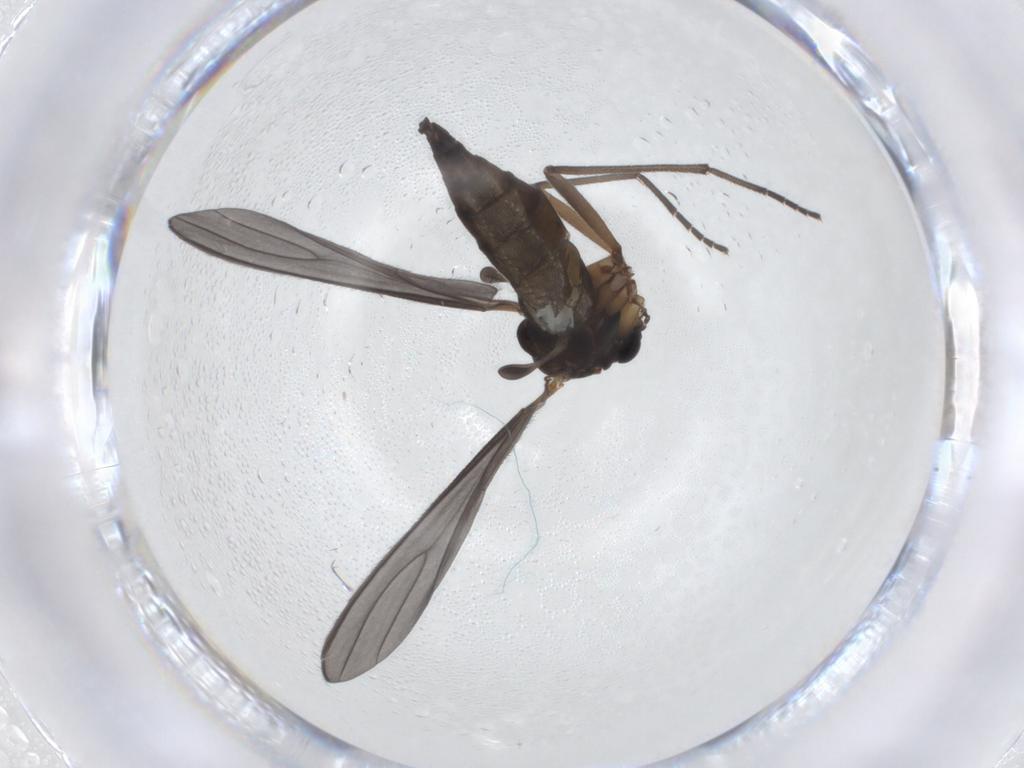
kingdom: Animalia
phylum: Arthropoda
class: Insecta
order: Diptera
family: Sciaridae
